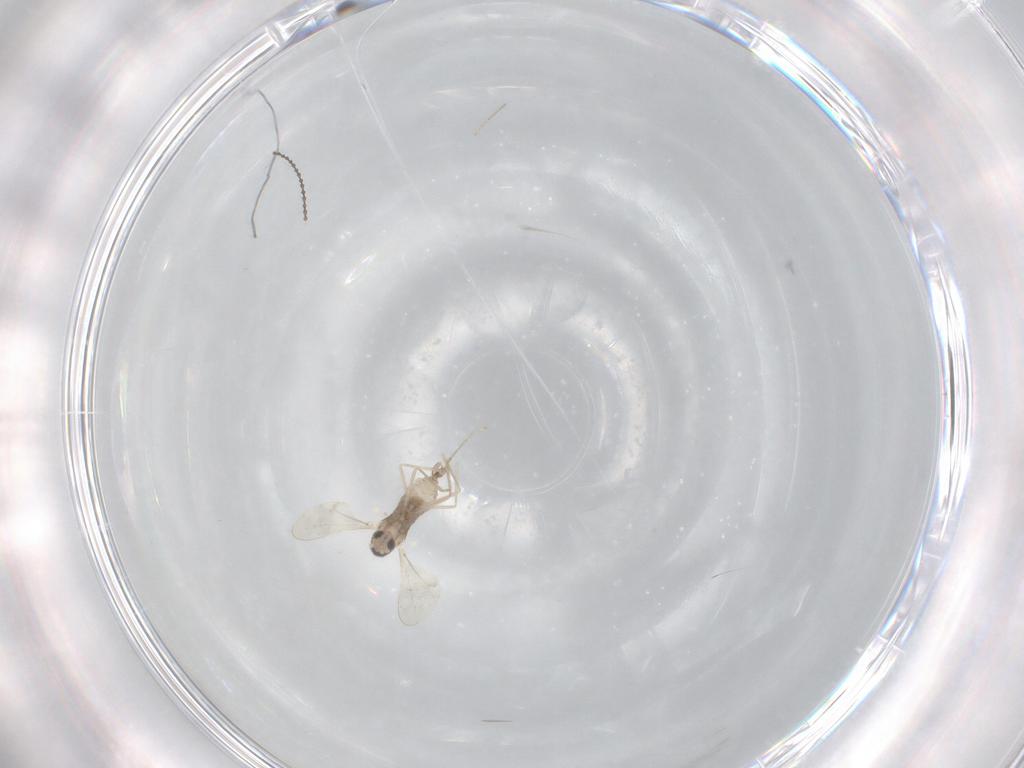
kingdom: Animalia
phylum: Arthropoda
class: Insecta
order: Diptera
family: Cecidomyiidae
